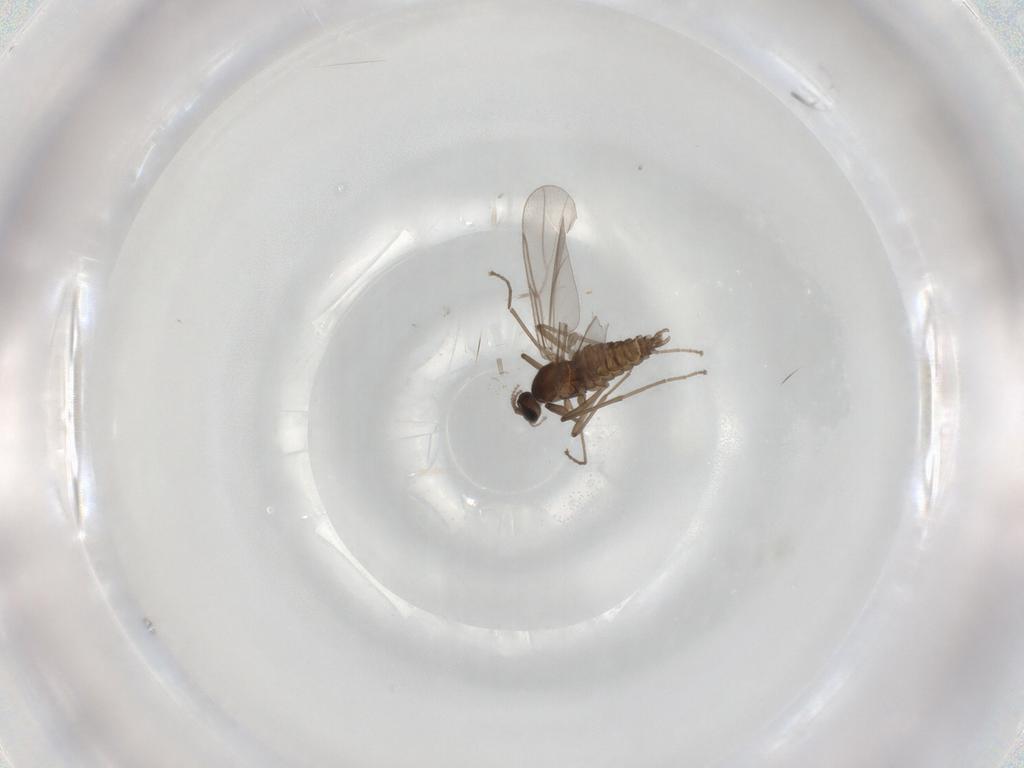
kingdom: Animalia
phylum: Arthropoda
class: Insecta
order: Diptera
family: Cecidomyiidae
